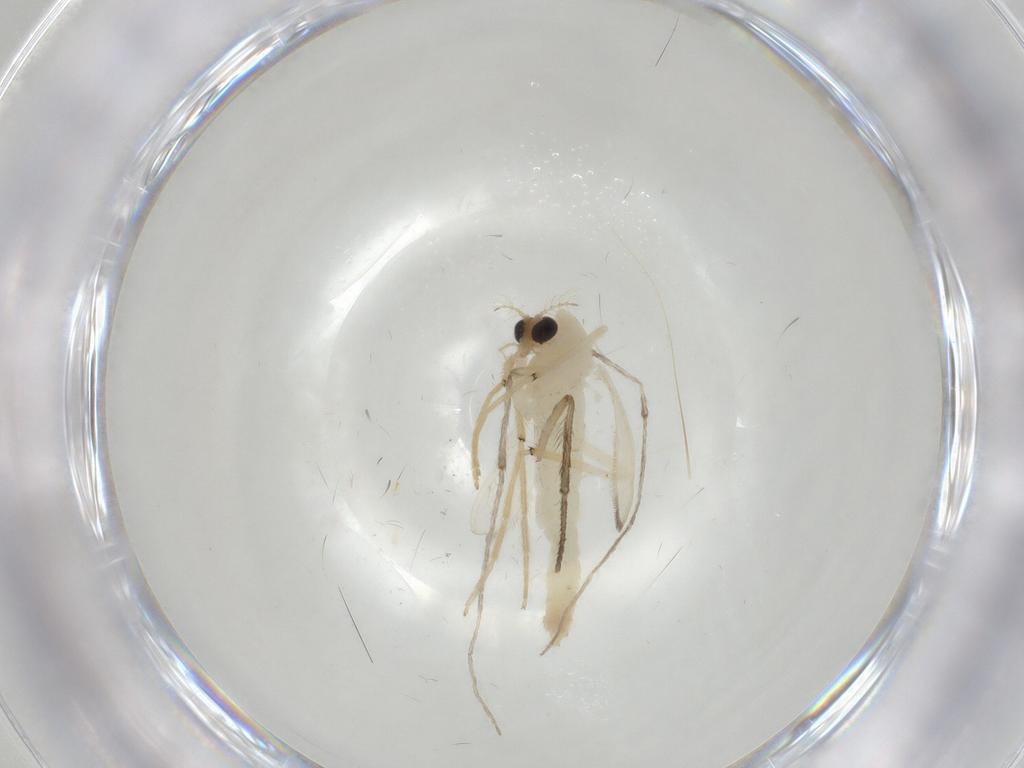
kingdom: Animalia
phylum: Arthropoda
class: Insecta
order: Diptera
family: Psychodidae
